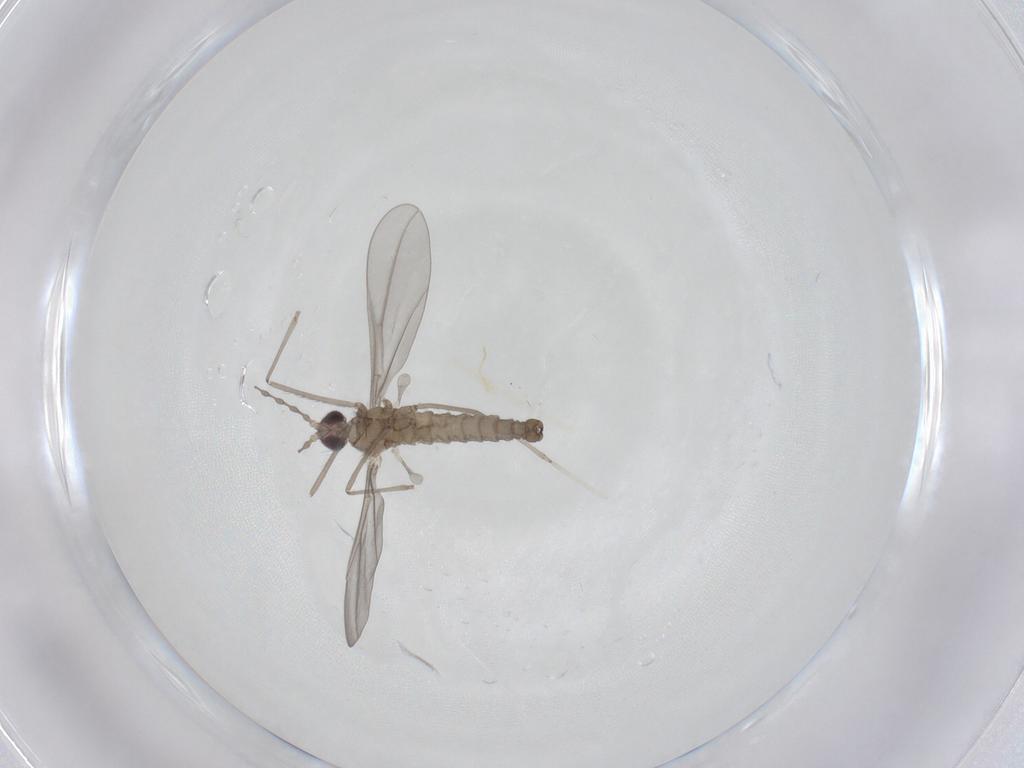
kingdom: Animalia
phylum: Arthropoda
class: Insecta
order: Diptera
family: Cecidomyiidae
